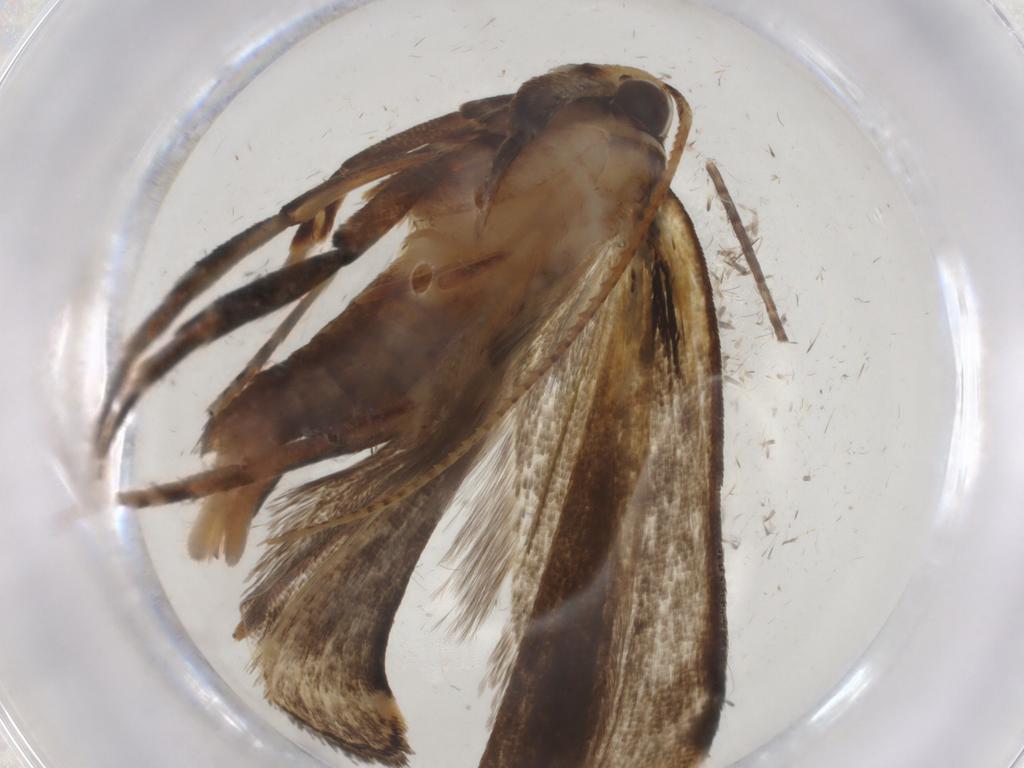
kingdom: Animalia
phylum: Arthropoda
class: Insecta
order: Lepidoptera
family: Gelechiidae
